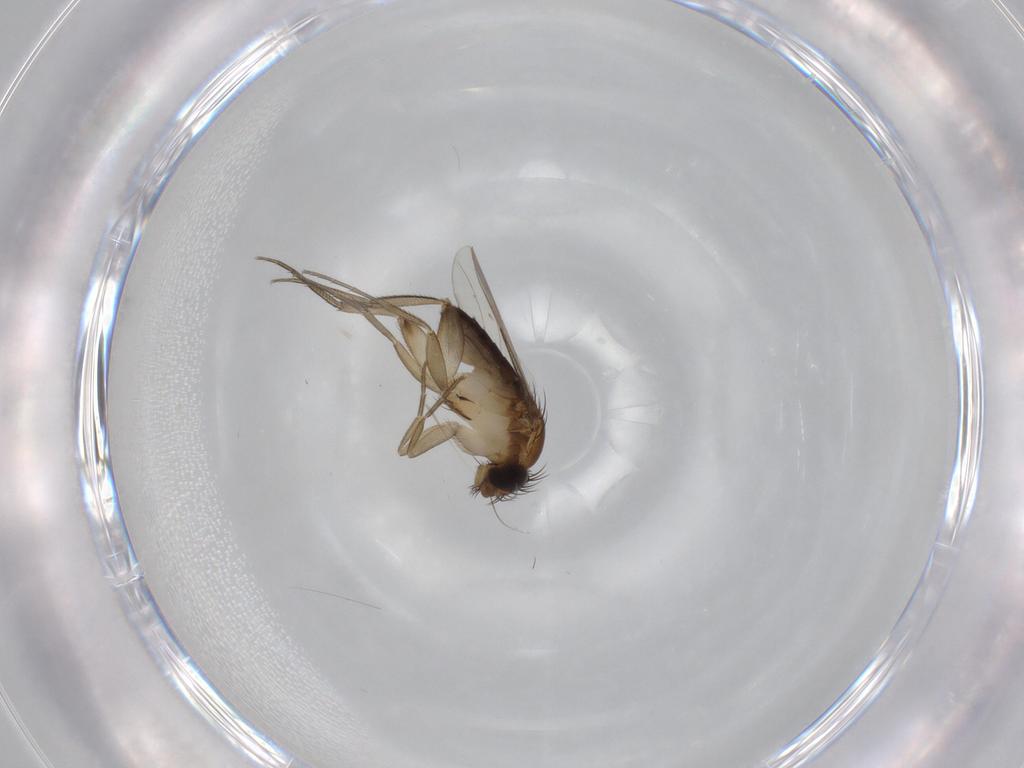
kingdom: Animalia
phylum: Arthropoda
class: Insecta
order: Diptera
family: Phoridae
